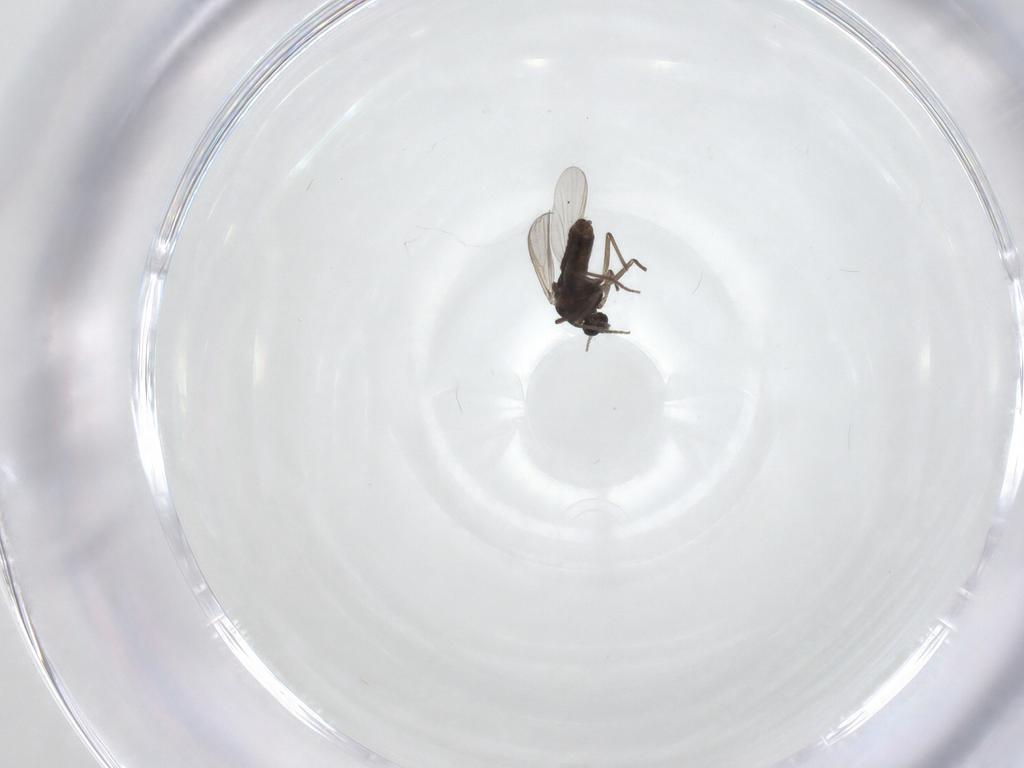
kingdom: Animalia
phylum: Arthropoda
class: Insecta
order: Diptera
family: Chironomidae
